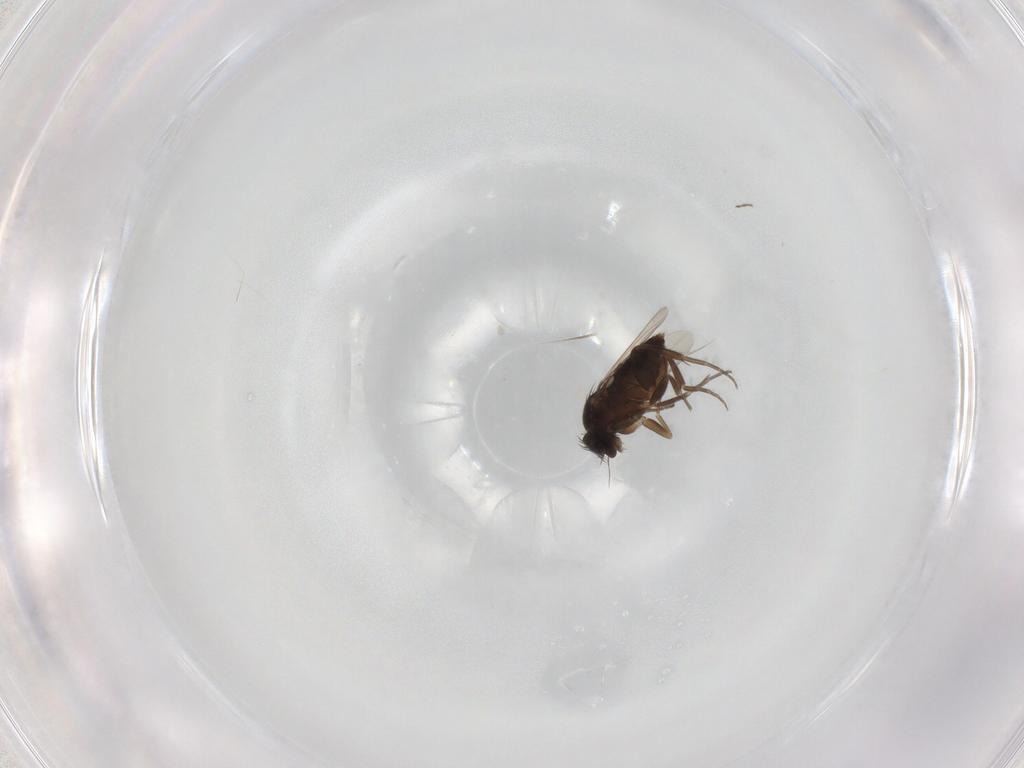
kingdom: Animalia
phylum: Arthropoda
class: Insecta
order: Diptera
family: Phoridae
